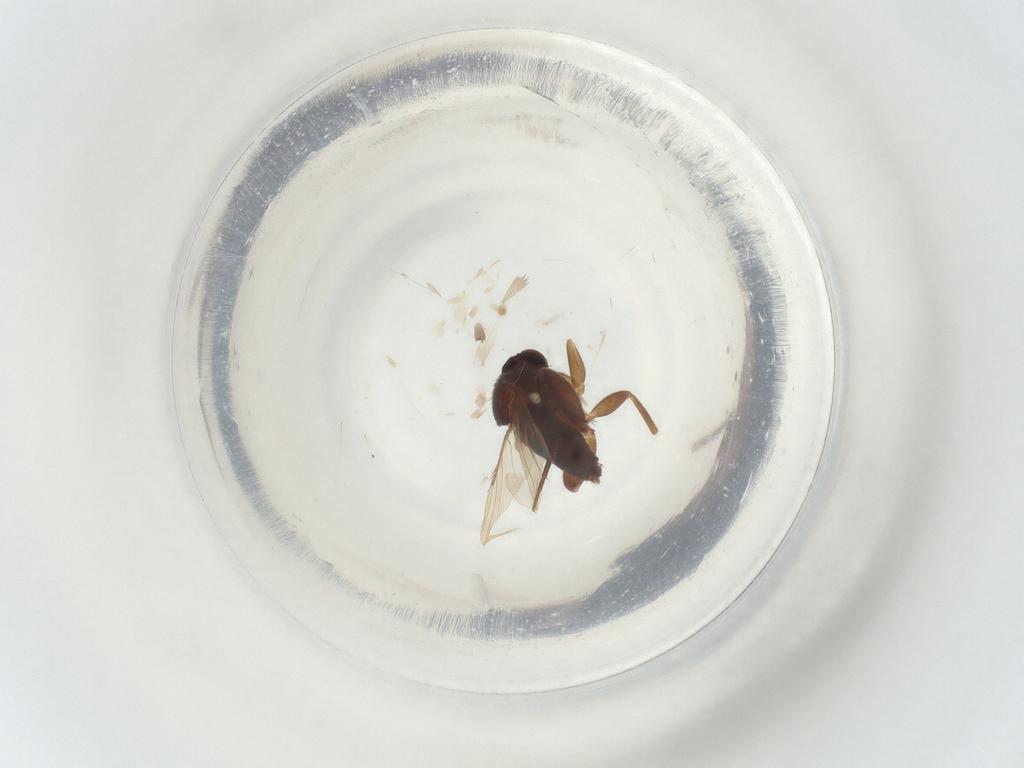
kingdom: Animalia
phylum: Arthropoda
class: Insecta
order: Diptera
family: Phoridae
